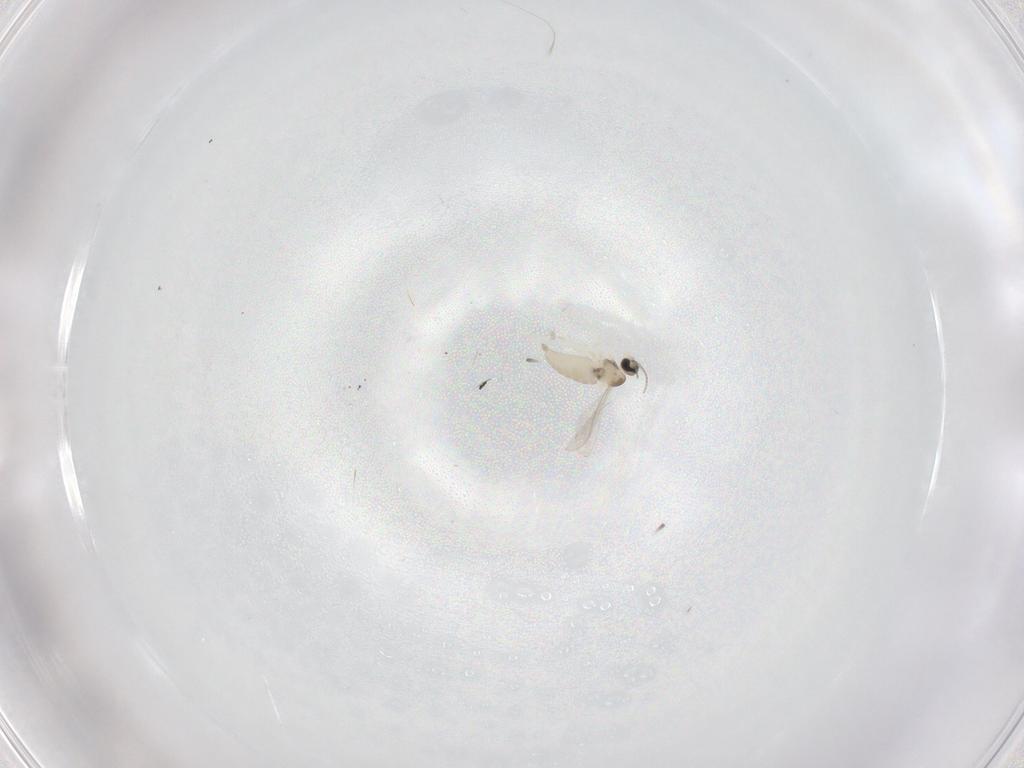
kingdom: Animalia
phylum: Arthropoda
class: Insecta
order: Diptera
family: Cecidomyiidae
